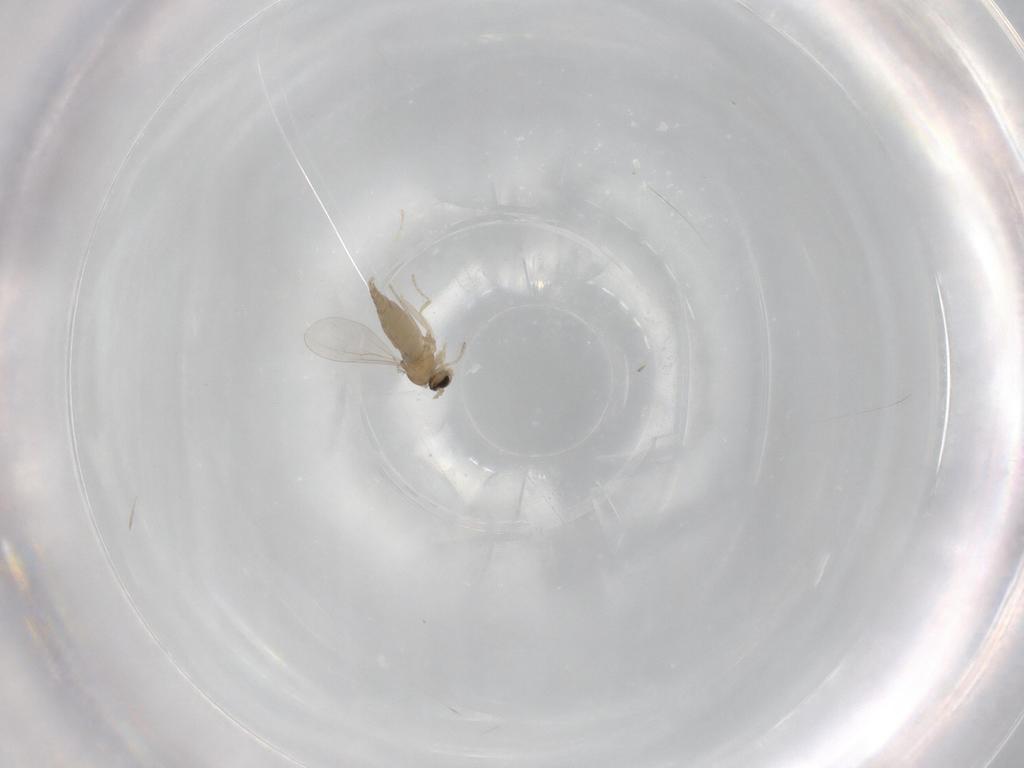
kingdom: Animalia
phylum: Arthropoda
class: Insecta
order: Diptera
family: Cecidomyiidae
